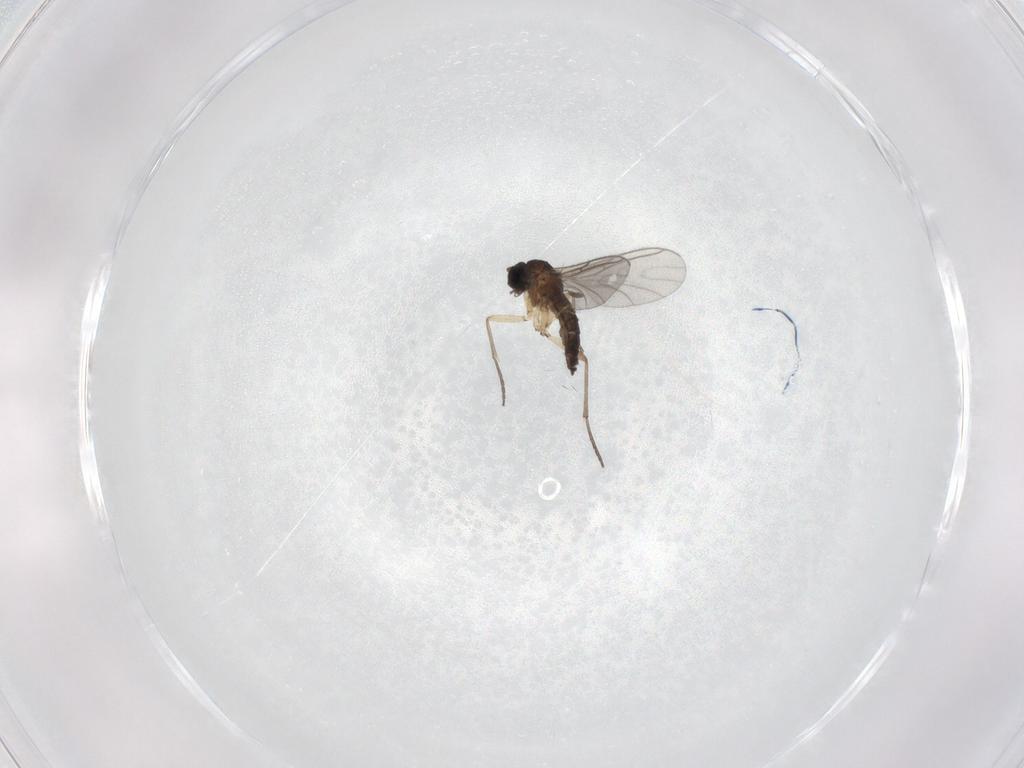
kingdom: Animalia
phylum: Arthropoda
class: Insecta
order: Diptera
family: Sciaridae
